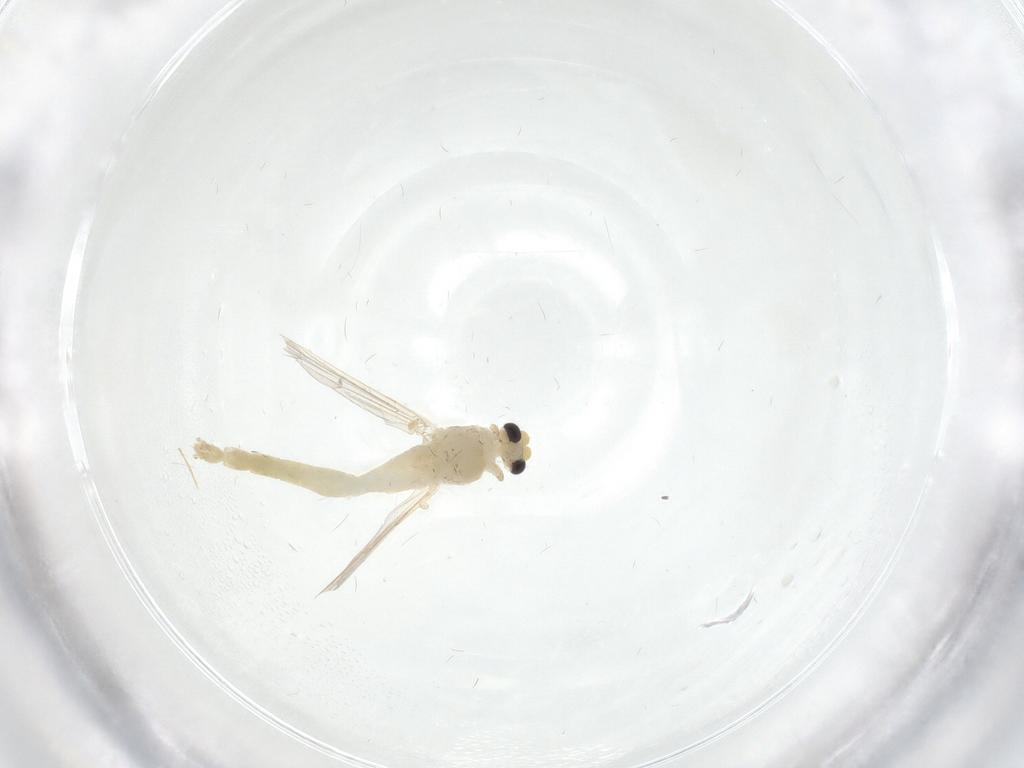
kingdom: Animalia
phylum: Arthropoda
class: Insecta
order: Diptera
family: Chironomidae
